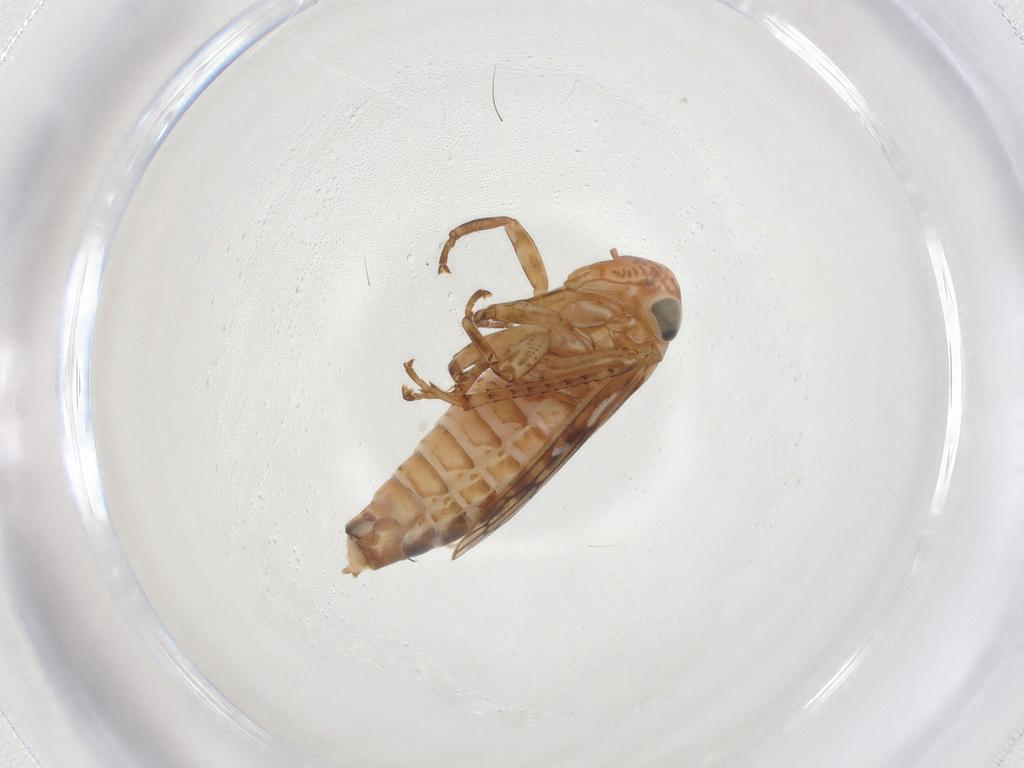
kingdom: Animalia
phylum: Arthropoda
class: Insecta
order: Hemiptera
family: Cicadellidae
